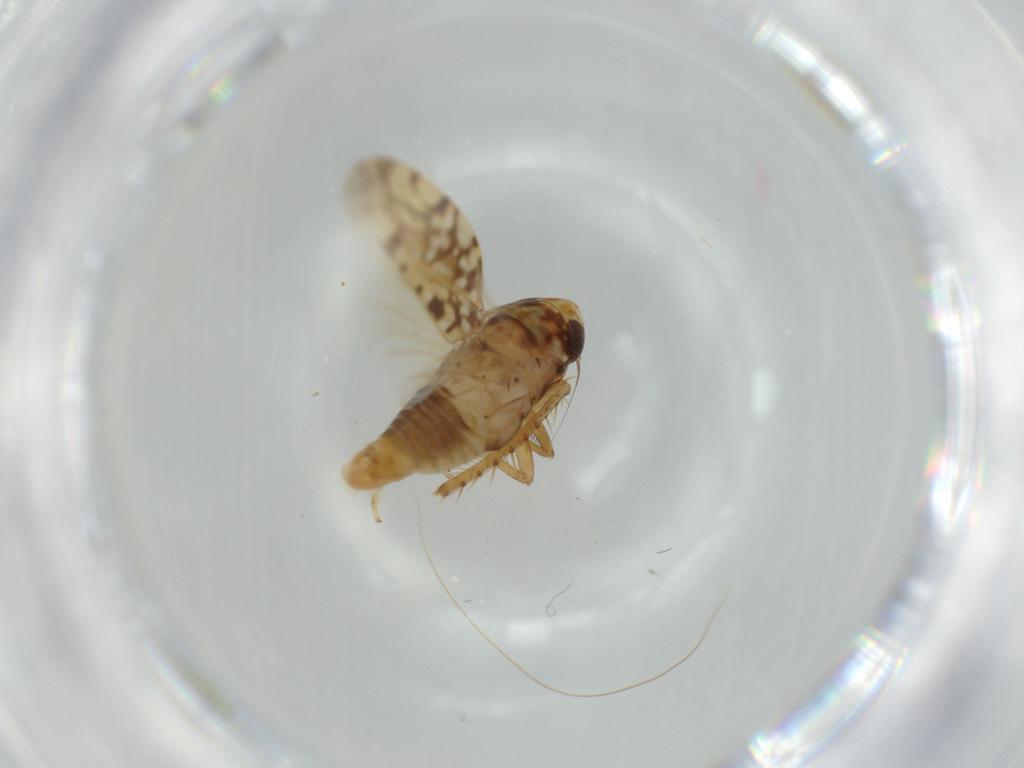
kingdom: Animalia
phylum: Arthropoda
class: Insecta
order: Hemiptera
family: Cicadellidae
